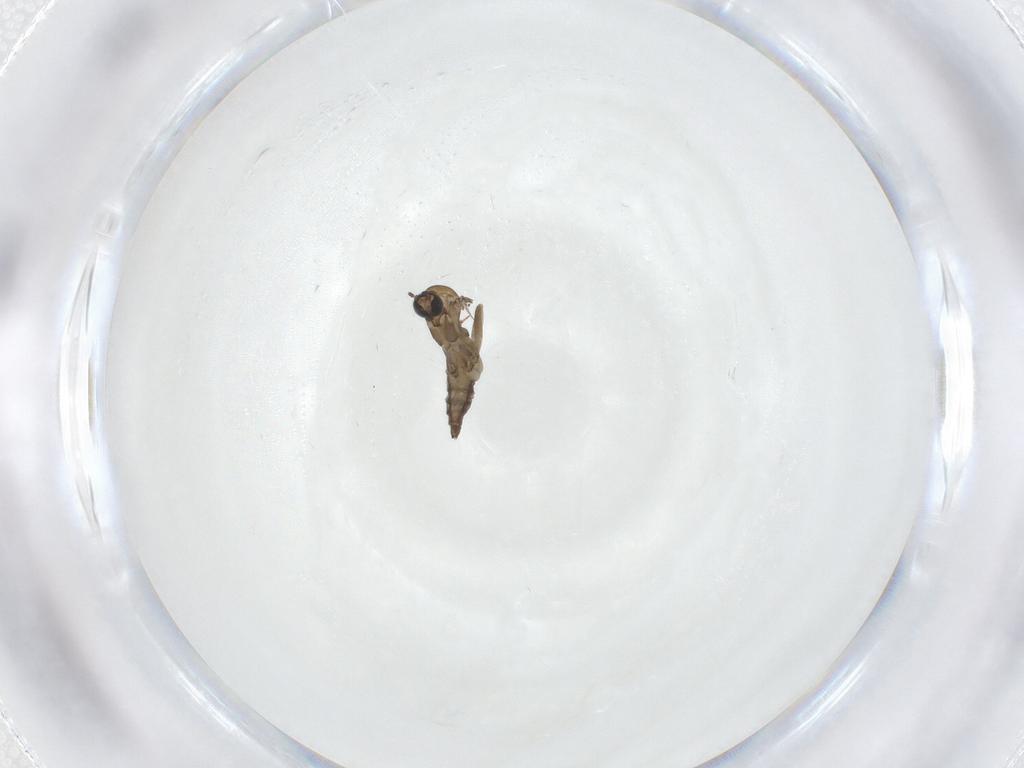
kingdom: Animalia
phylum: Arthropoda
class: Insecta
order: Diptera
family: Sciaridae
